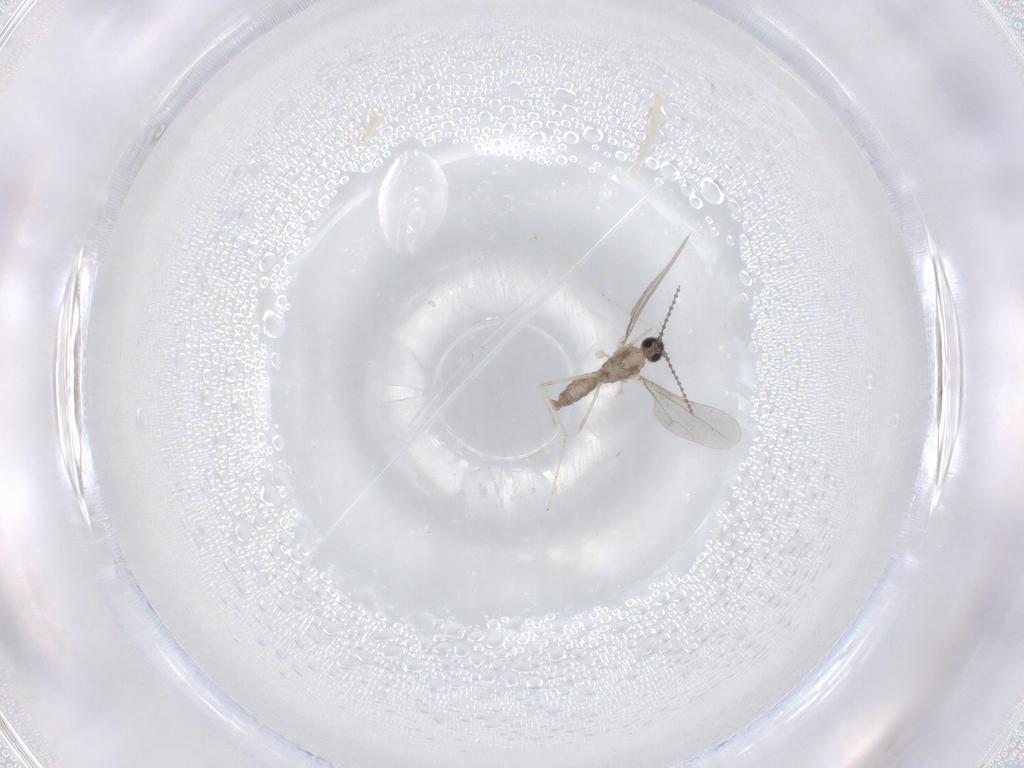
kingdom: Animalia
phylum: Arthropoda
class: Insecta
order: Diptera
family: Cecidomyiidae
